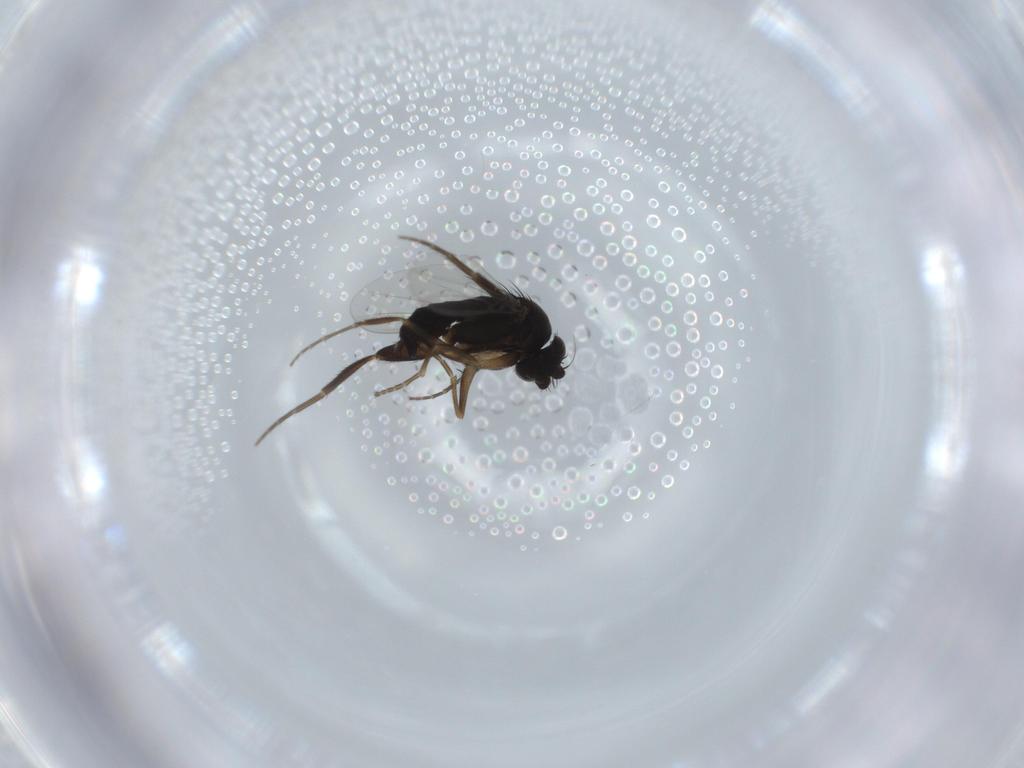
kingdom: Animalia
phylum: Arthropoda
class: Insecta
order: Diptera
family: Phoridae
